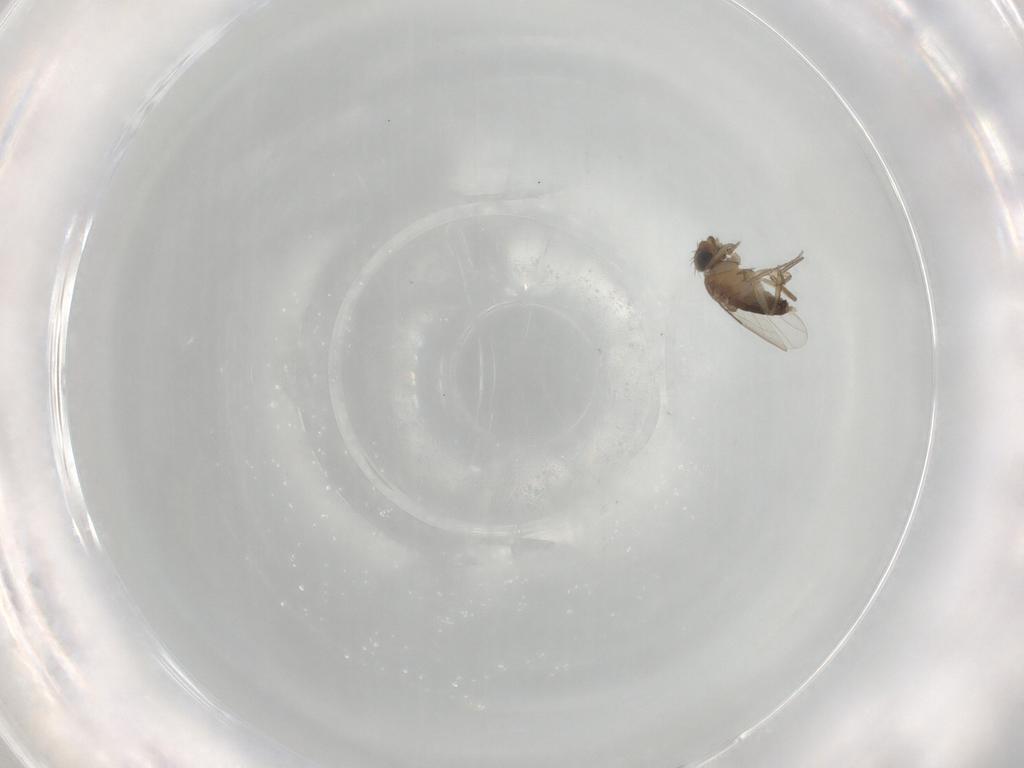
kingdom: Animalia
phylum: Arthropoda
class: Insecta
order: Diptera
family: Phoridae
